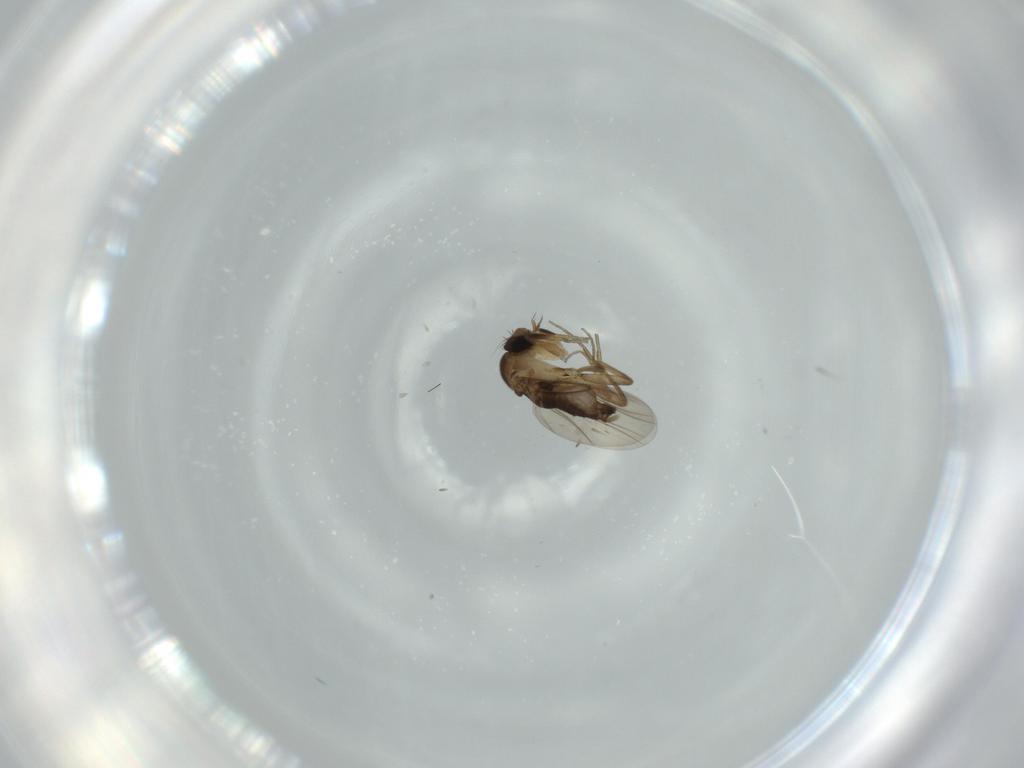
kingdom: Animalia
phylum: Arthropoda
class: Insecta
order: Diptera
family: Phoridae
